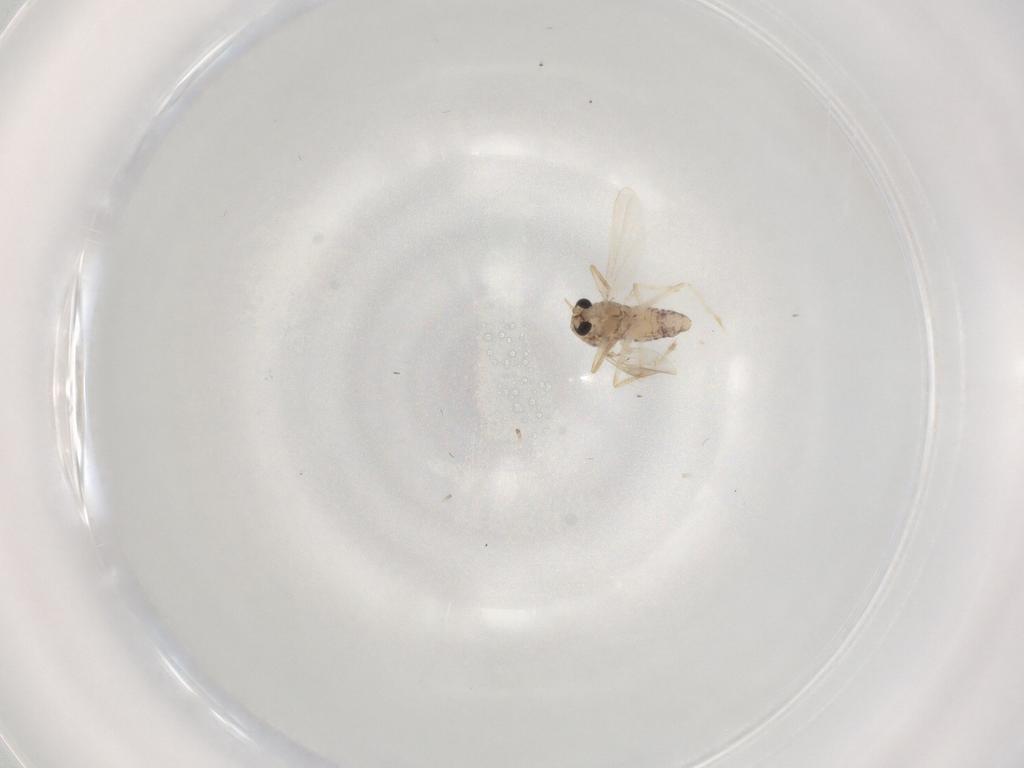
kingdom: Animalia
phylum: Arthropoda
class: Insecta
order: Diptera
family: Chironomidae
